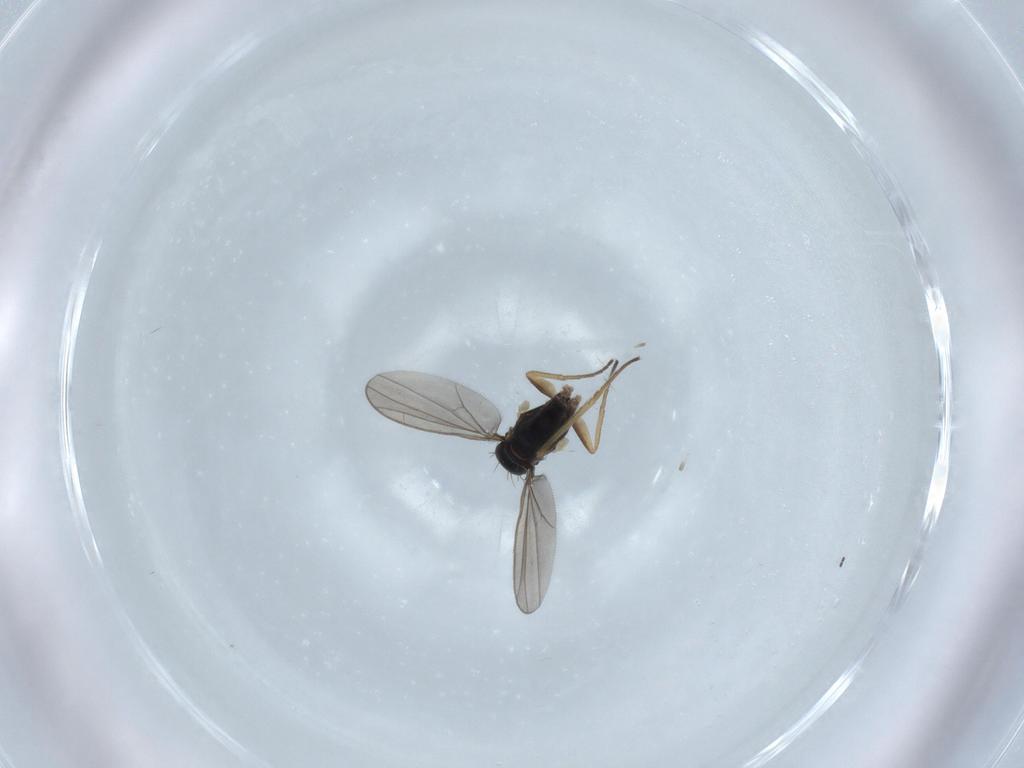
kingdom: Animalia
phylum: Arthropoda
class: Insecta
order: Diptera
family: Sciaridae
